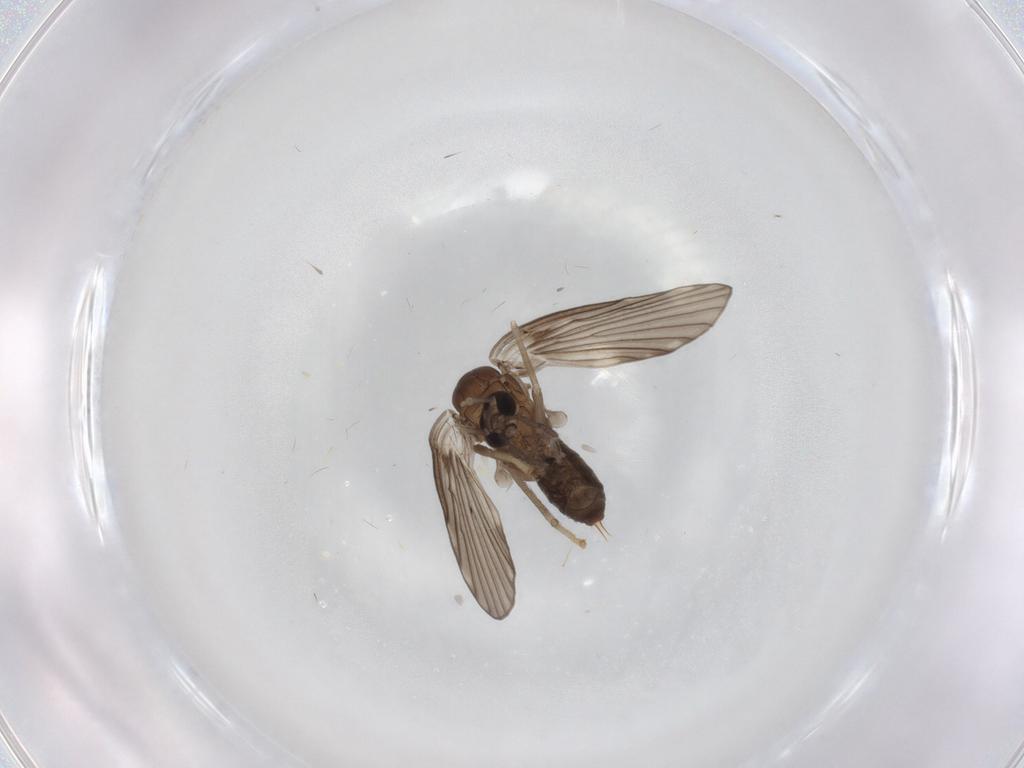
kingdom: Animalia
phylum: Arthropoda
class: Insecta
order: Diptera
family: Psychodidae
